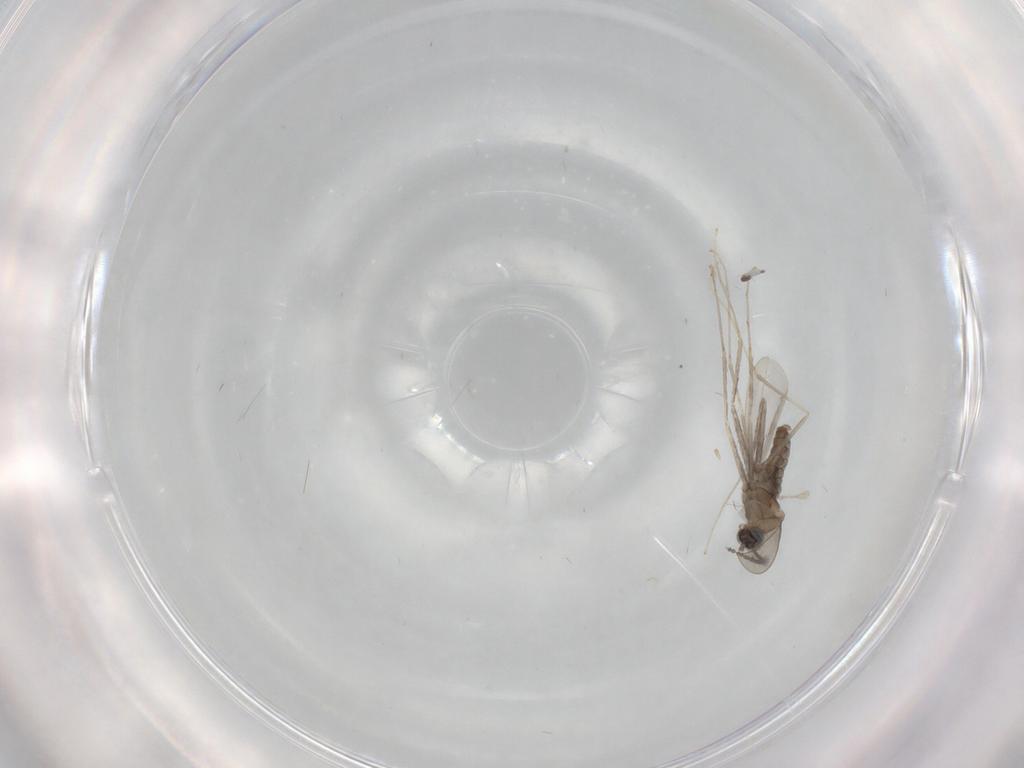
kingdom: Animalia
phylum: Arthropoda
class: Insecta
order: Diptera
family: Cecidomyiidae
